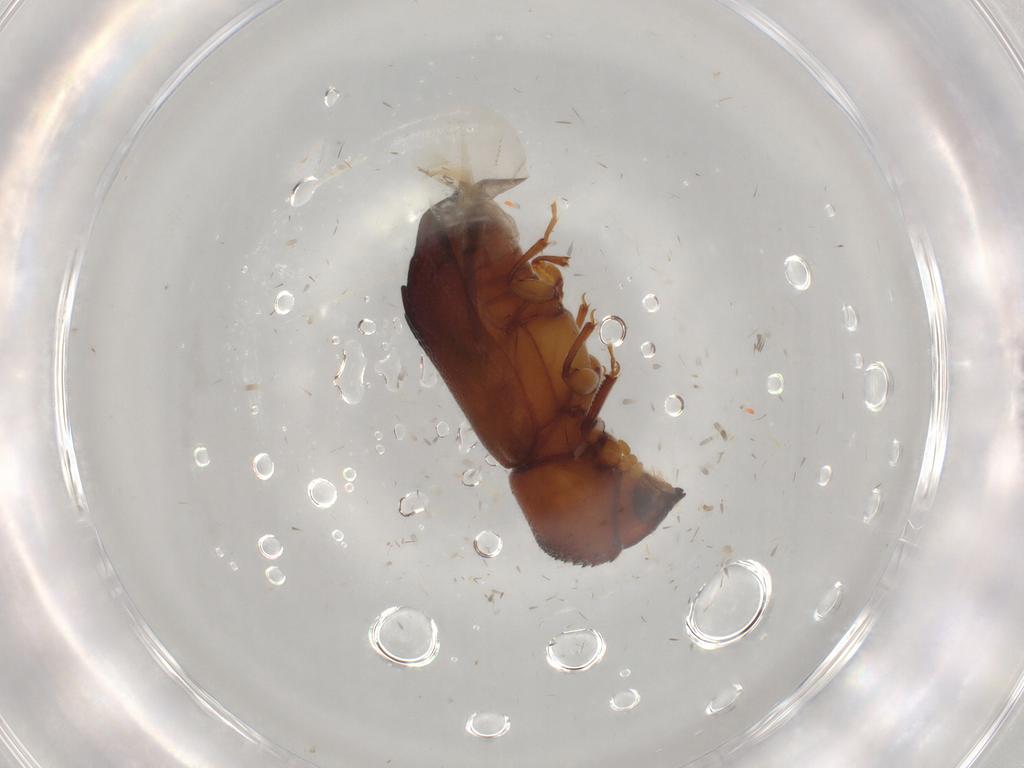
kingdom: Animalia
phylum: Arthropoda
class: Insecta
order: Coleoptera
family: Bostrichidae
